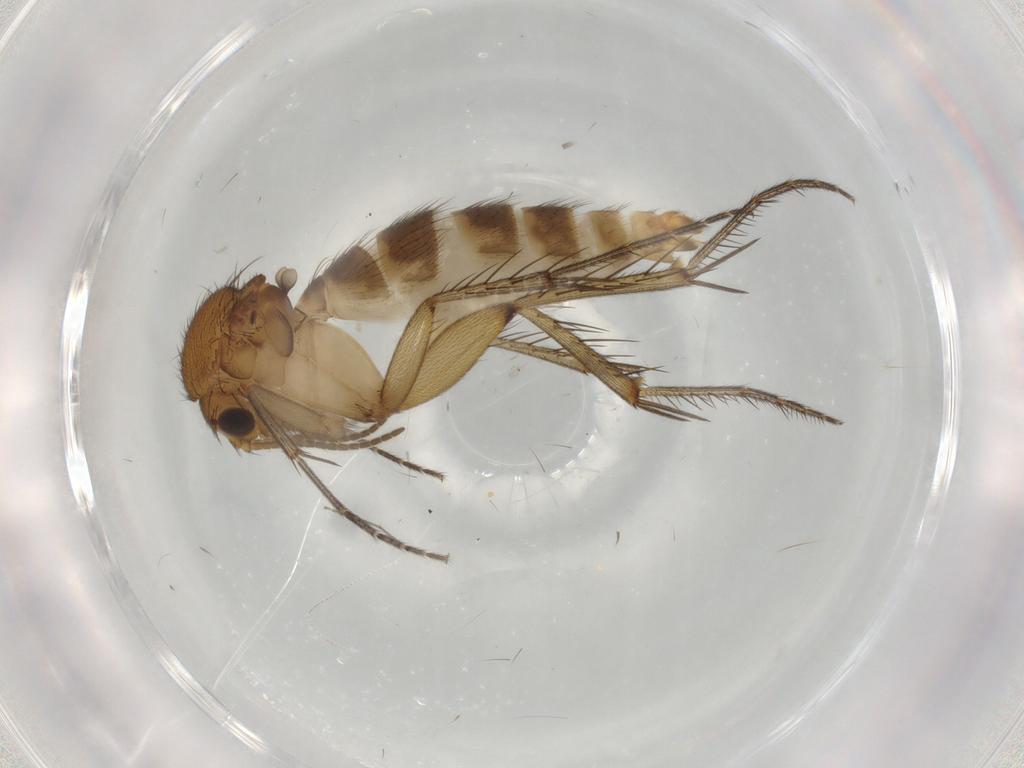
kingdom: Animalia
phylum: Arthropoda
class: Insecta
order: Diptera
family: Mycetophilidae
